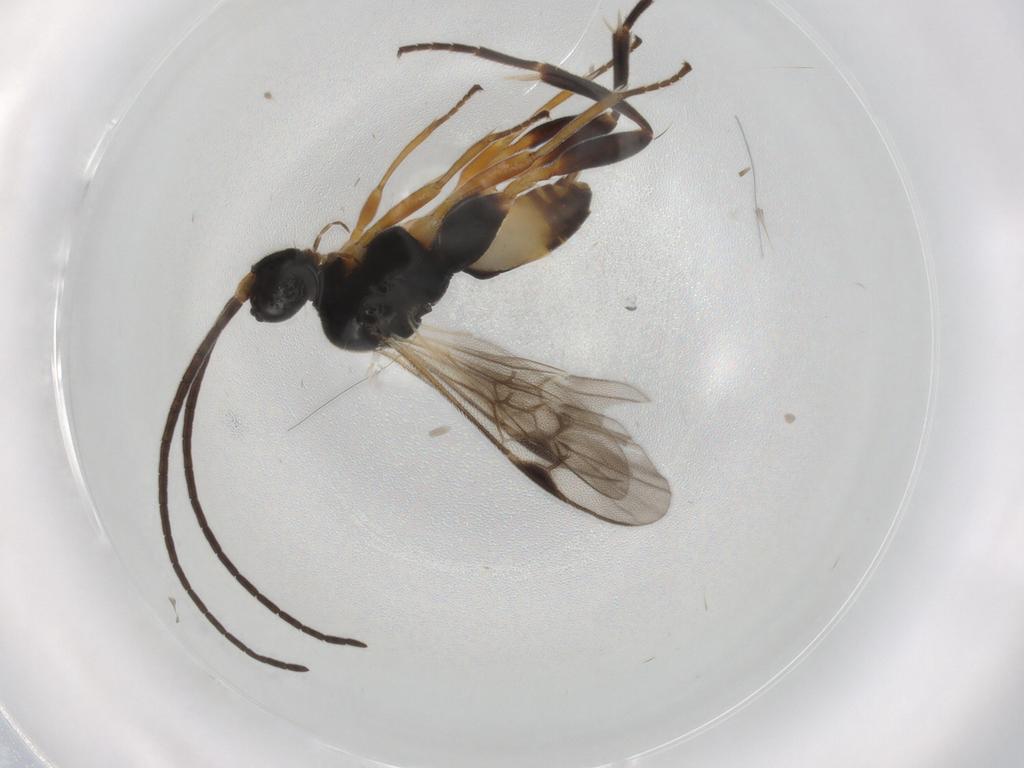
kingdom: Animalia
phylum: Arthropoda
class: Insecta
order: Hymenoptera
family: Braconidae
